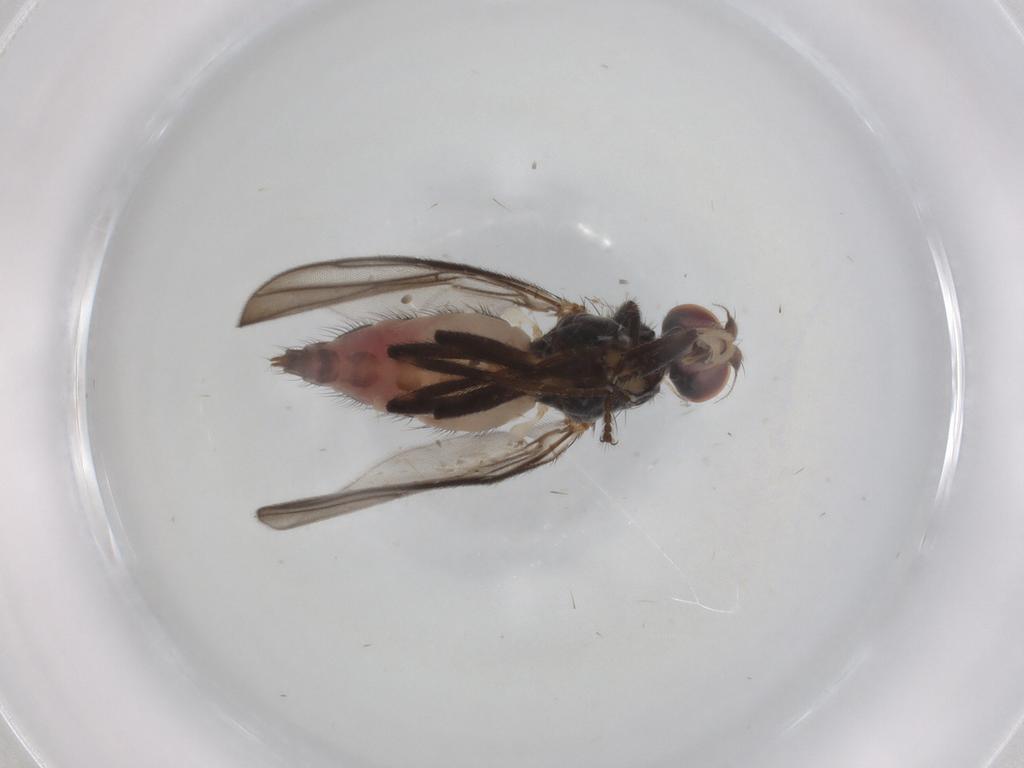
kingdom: Animalia
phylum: Arthropoda
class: Insecta
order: Diptera
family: Chloropidae
